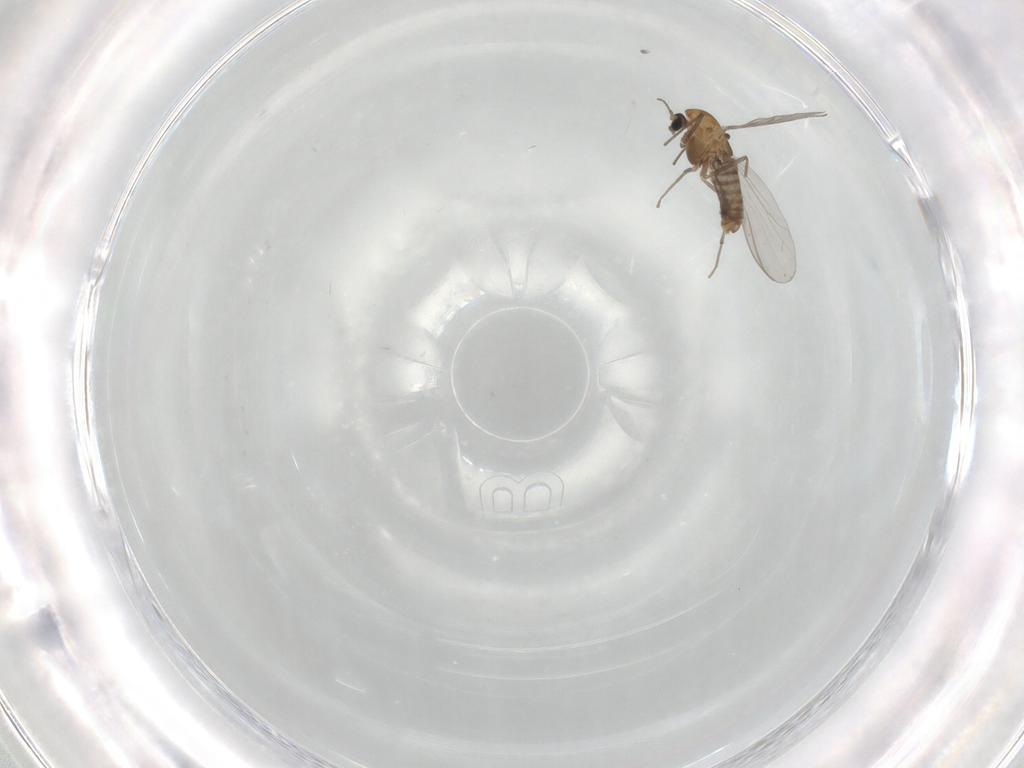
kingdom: Animalia
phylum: Arthropoda
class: Insecta
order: Diptera
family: Chironomidae
